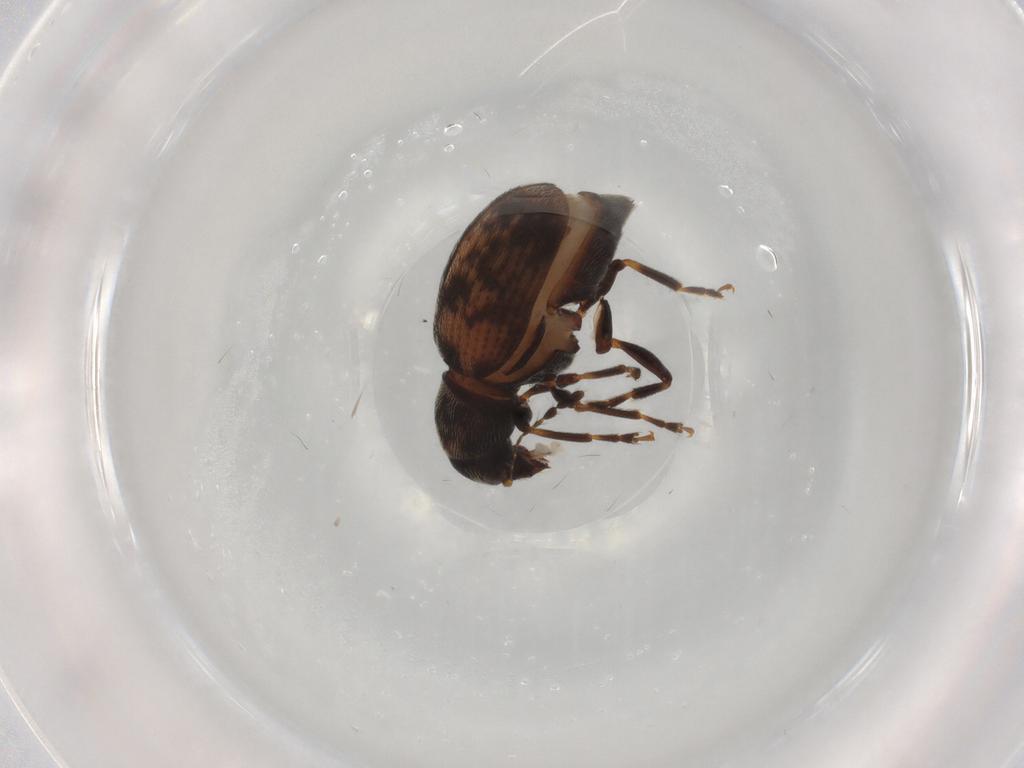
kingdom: Animalia
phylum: Arthropoda
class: Insecta
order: Coleoptera
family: Anthribidae
